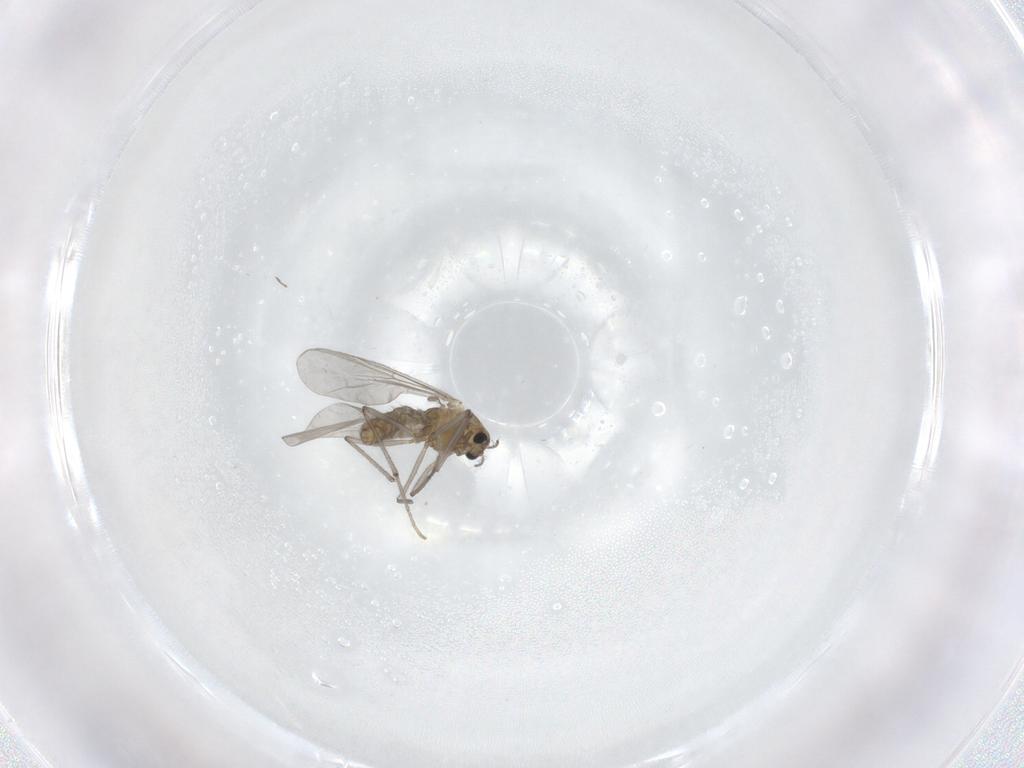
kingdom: Animalia
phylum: Arthropoda
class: Insecta
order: Diptera
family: Chironomidae
